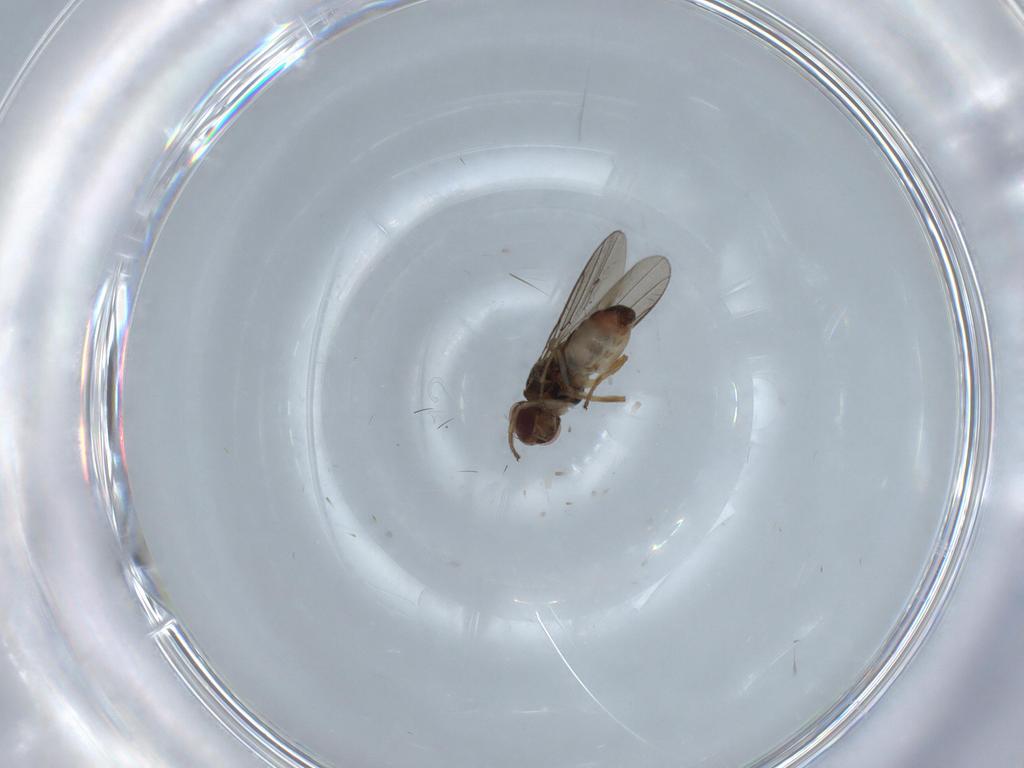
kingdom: Animalia
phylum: Arthropoda
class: Insecta
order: Diptera
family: Chloropidae
